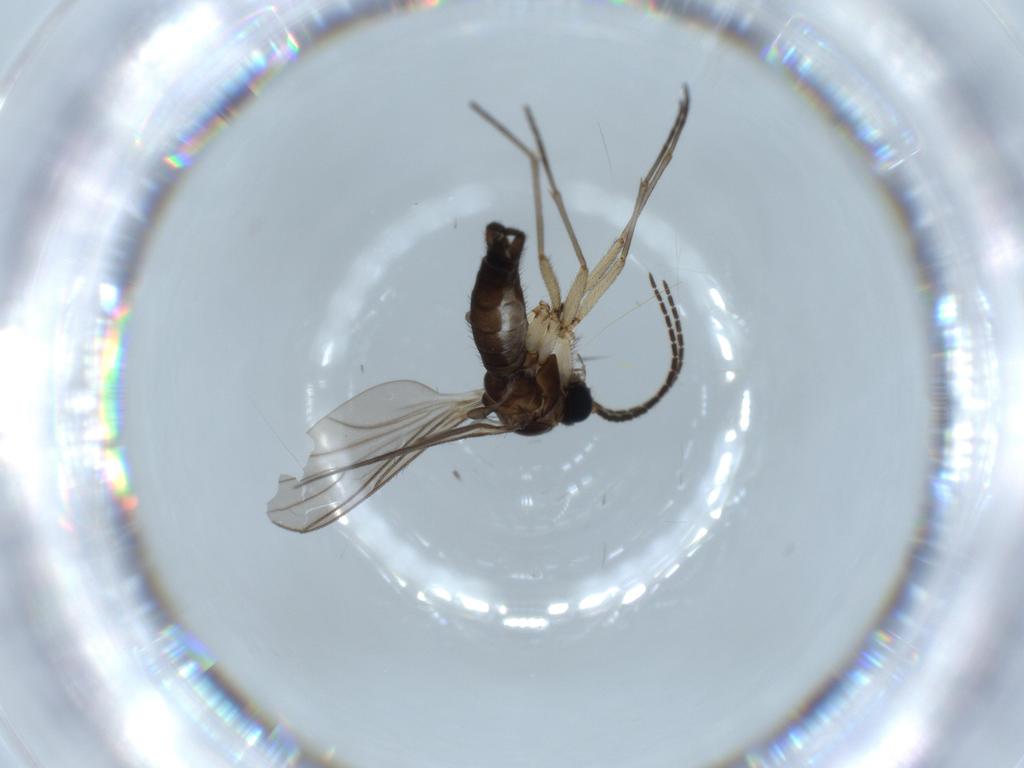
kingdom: Animalia
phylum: Arthropoda
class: Insecta
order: Diptera
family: Sciaridae
